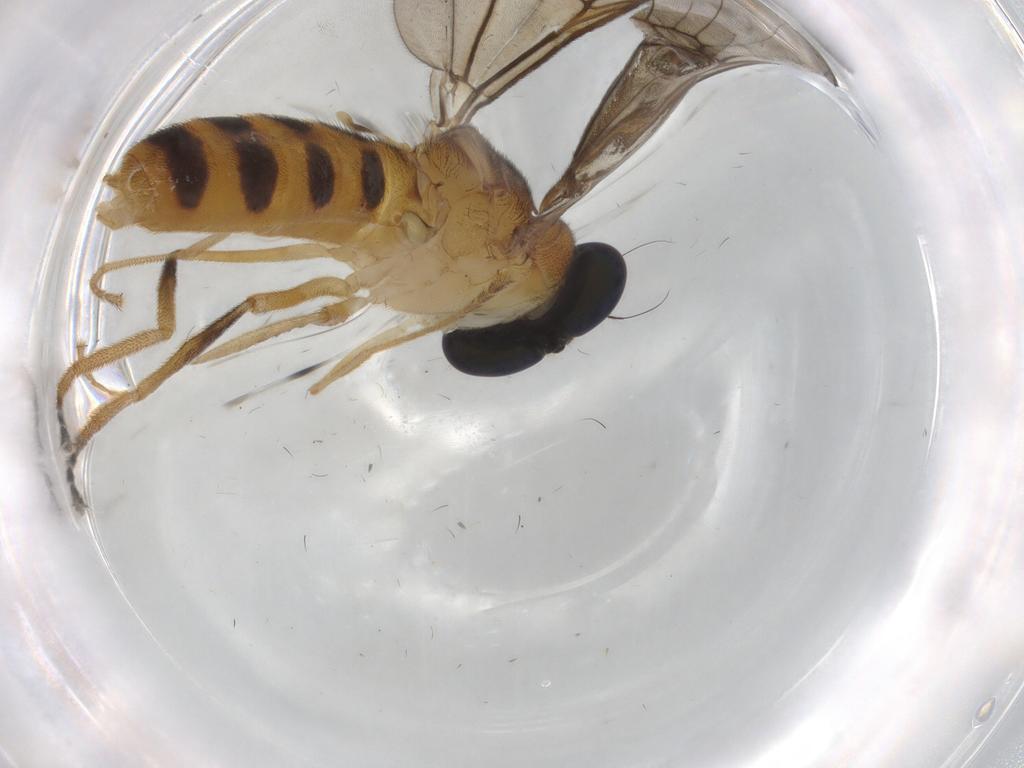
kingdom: Animalia
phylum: Arthropoda
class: Insecta
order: Diptera
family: Cecidomyiidae
